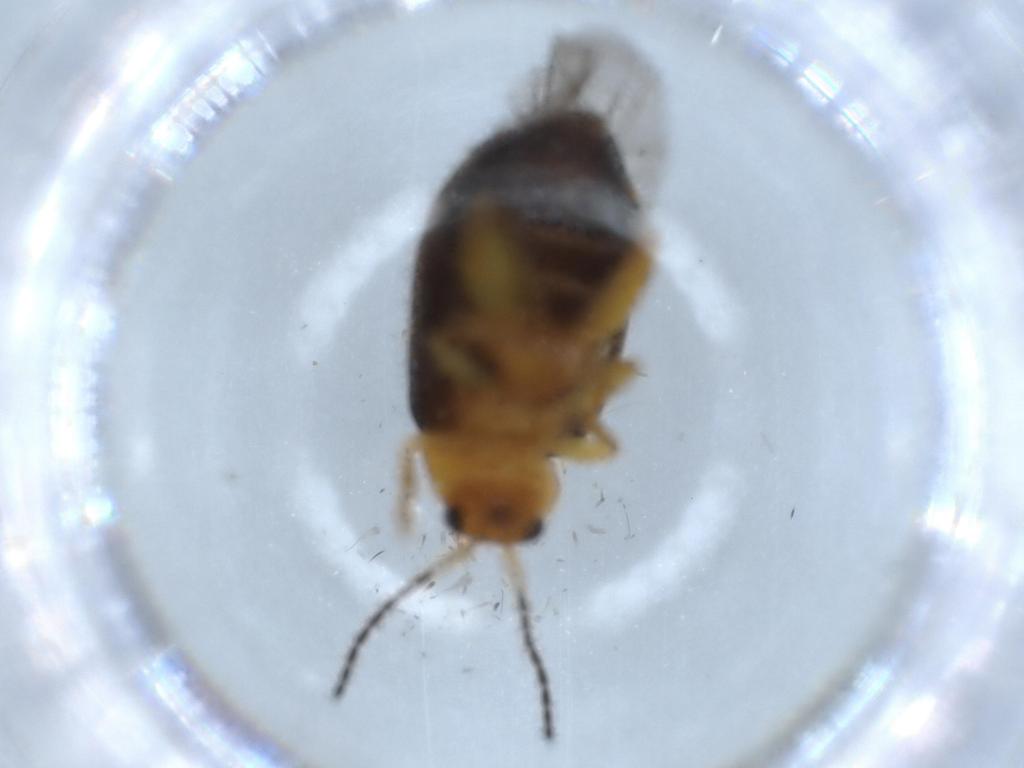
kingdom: Animalia
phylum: Arthropoda
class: Insecta
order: Coleoptera
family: Chrysomelidae
